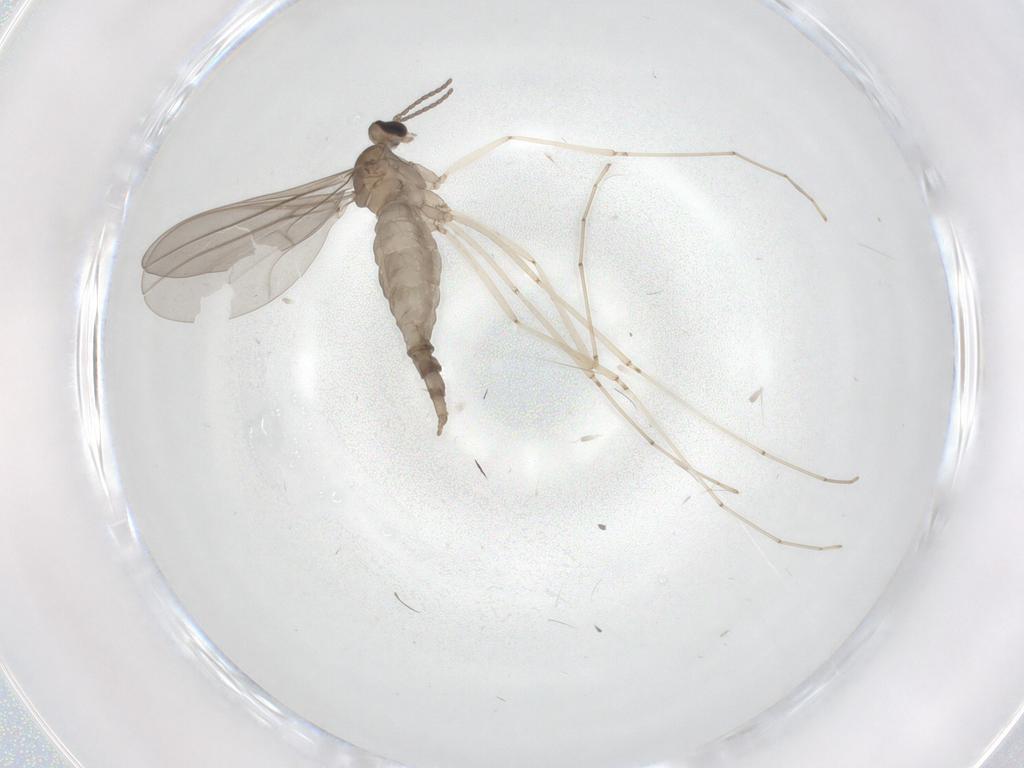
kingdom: Animalia
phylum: Arthropoda
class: Insecta
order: Diptera
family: Cecidomyiidae
